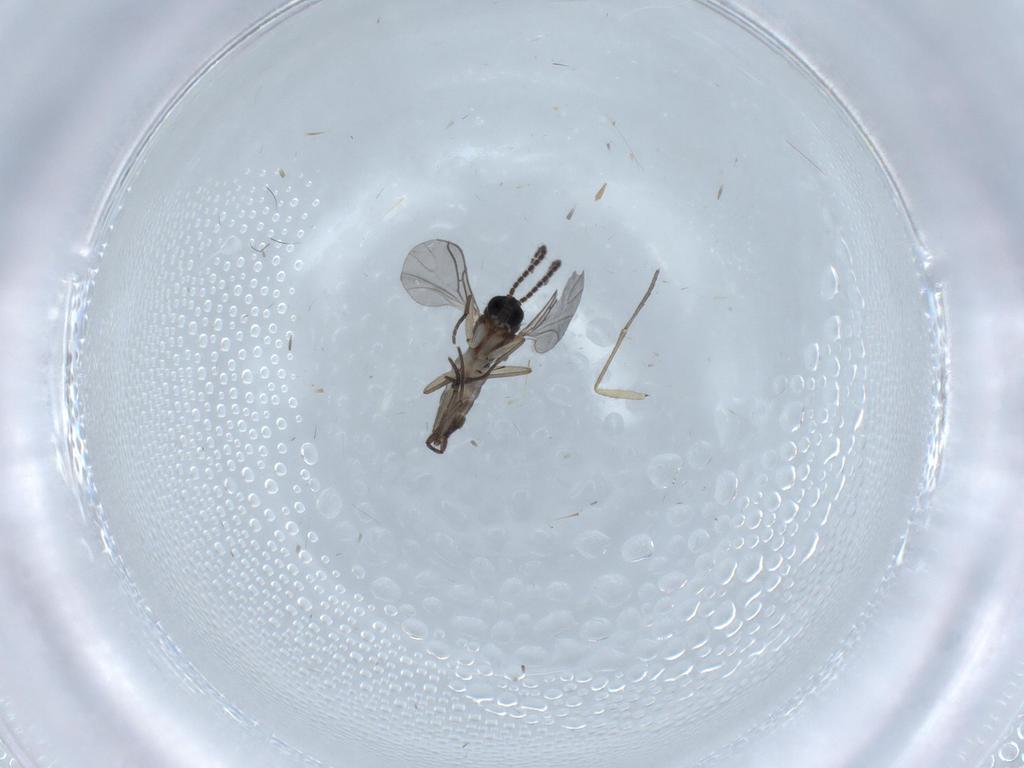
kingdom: Animalia
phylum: Arthropoda
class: Insecta
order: Diptera
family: Sciaridae
